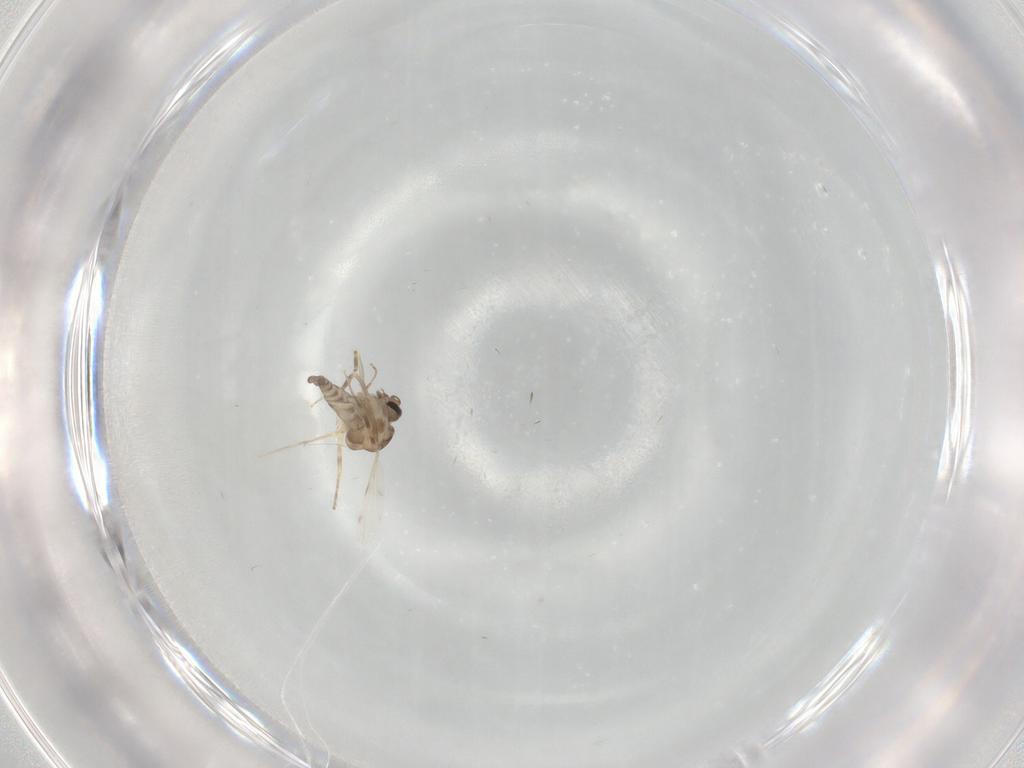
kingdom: Animalia
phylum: Arthropoda
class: Insecta
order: Diptera
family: Ceratopogonidae
